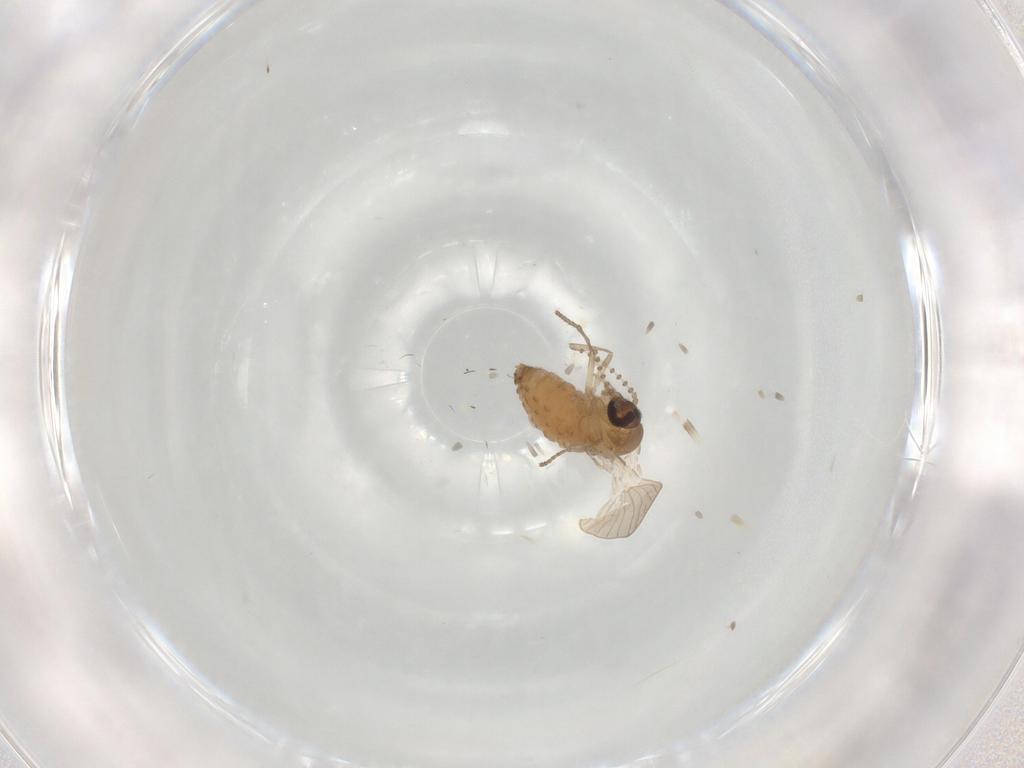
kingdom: Animalia
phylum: Arthropoda
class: Insecta
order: Diptera
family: Psychodidae
